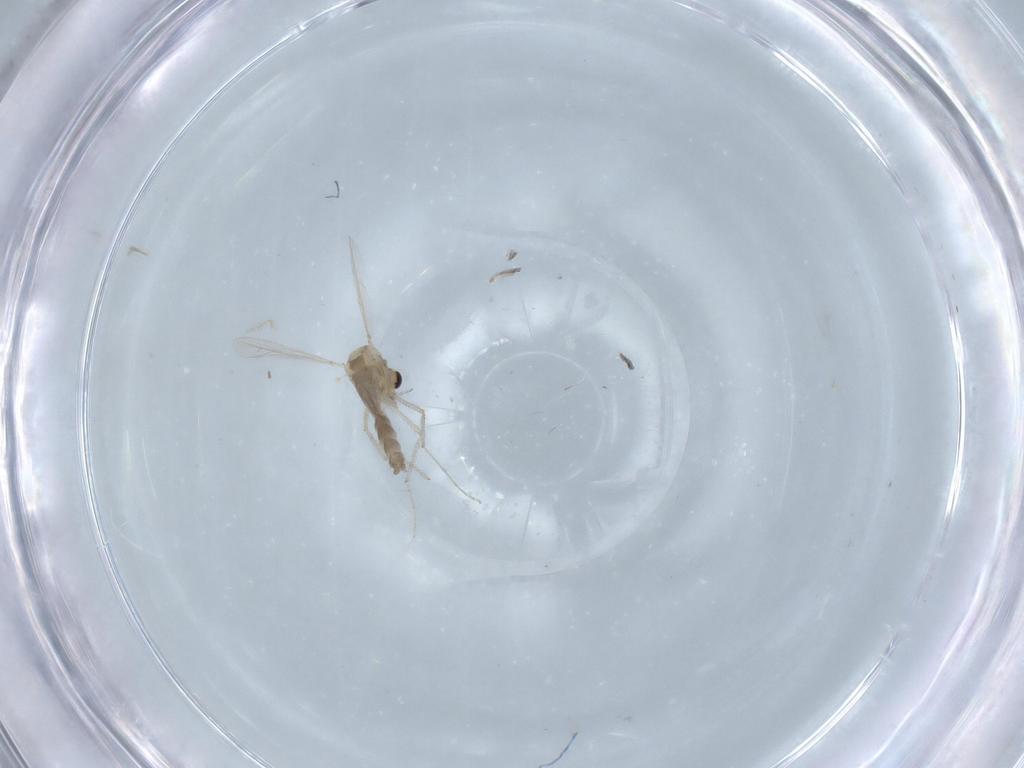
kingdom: Animalia
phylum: Arthropoda
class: Insecta
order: Diptera
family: Chironomidae
